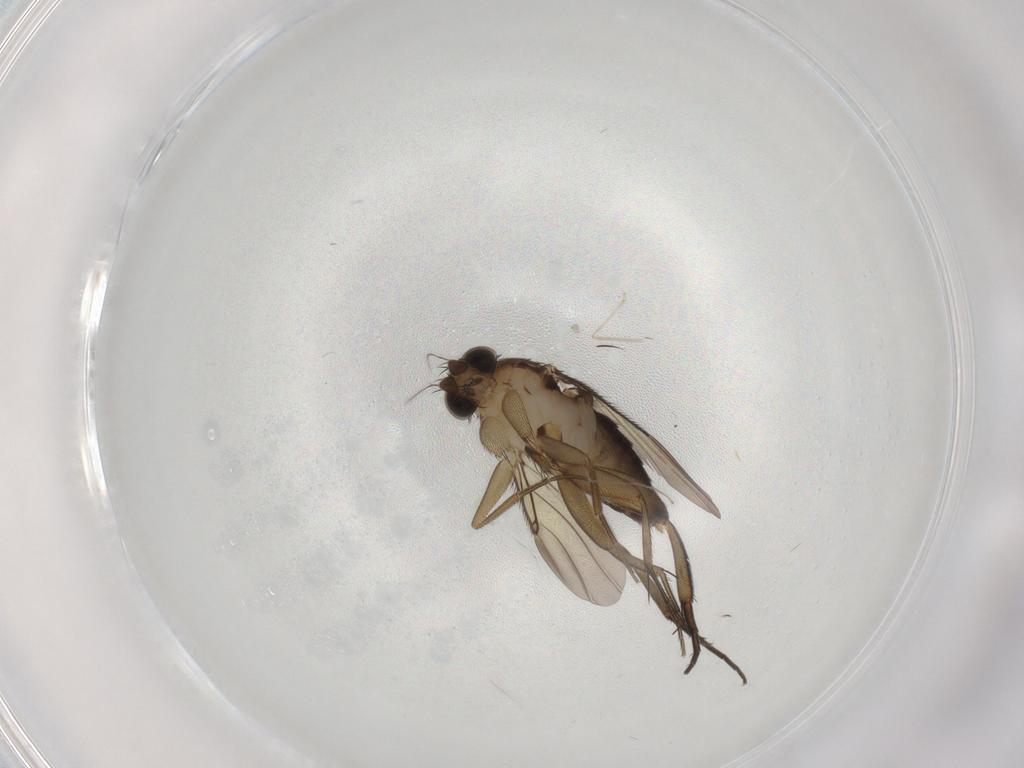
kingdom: Animalia
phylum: Arthropoda
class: Insecta
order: Diptera
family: Phoridae
